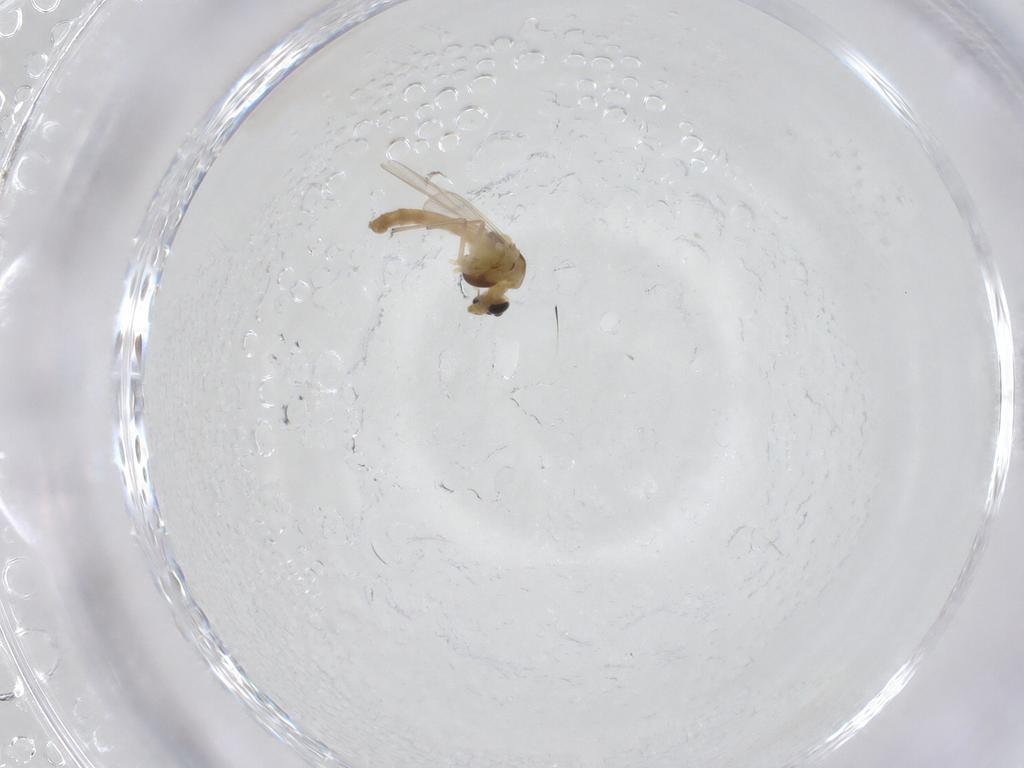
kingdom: Animalia
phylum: Arthropoda
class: Insecta
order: Diptera
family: Chironomidae
